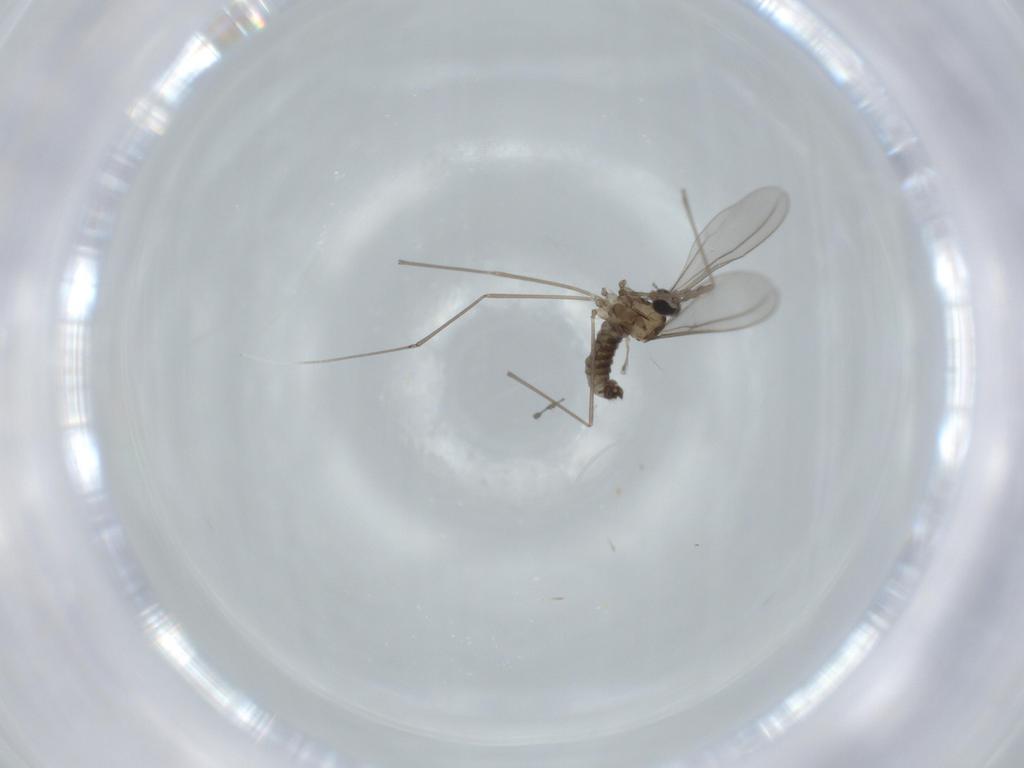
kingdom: Animalia
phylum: Arthropoda
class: Insecta
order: Diptera
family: Cecidomyiidae
